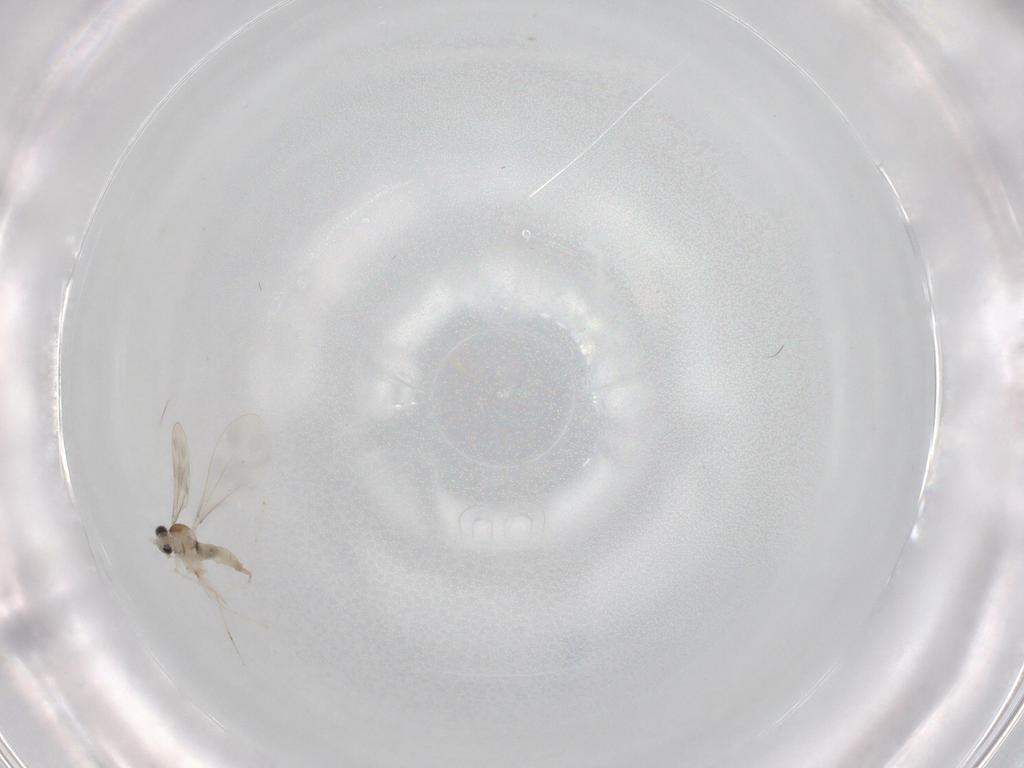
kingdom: Animalia
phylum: Arthropoda
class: Insecta
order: Diptera
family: Cecidomyiidae
